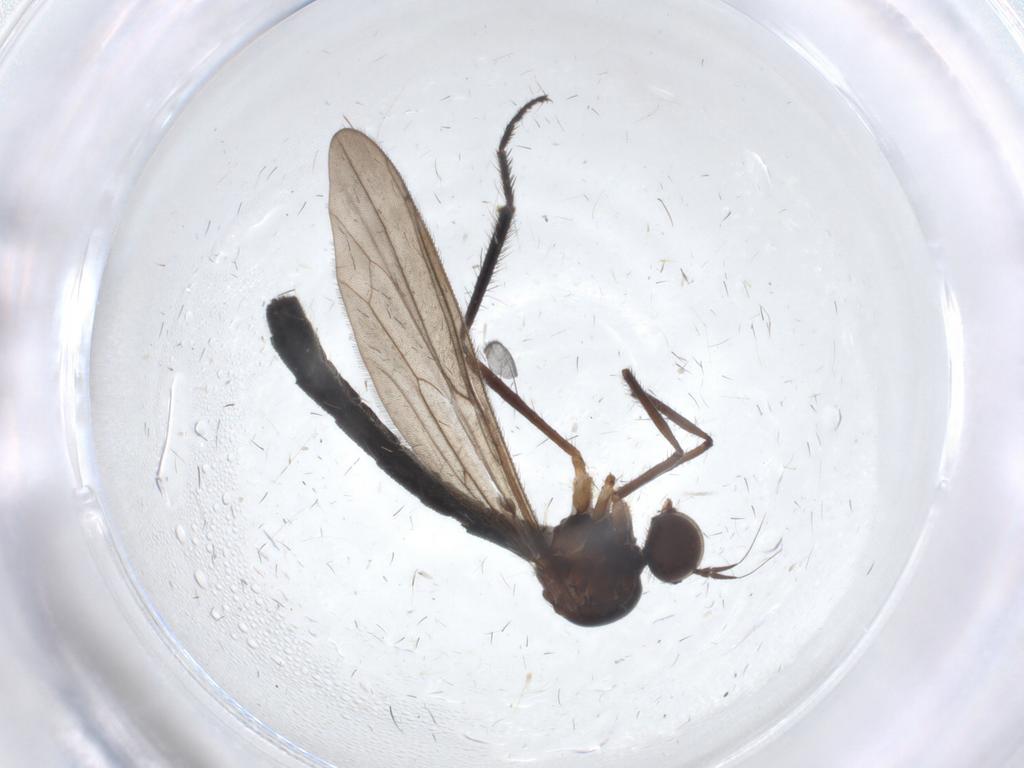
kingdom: Animalia
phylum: Arthropoda
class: Insecta
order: Diptera
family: Hybotidae
